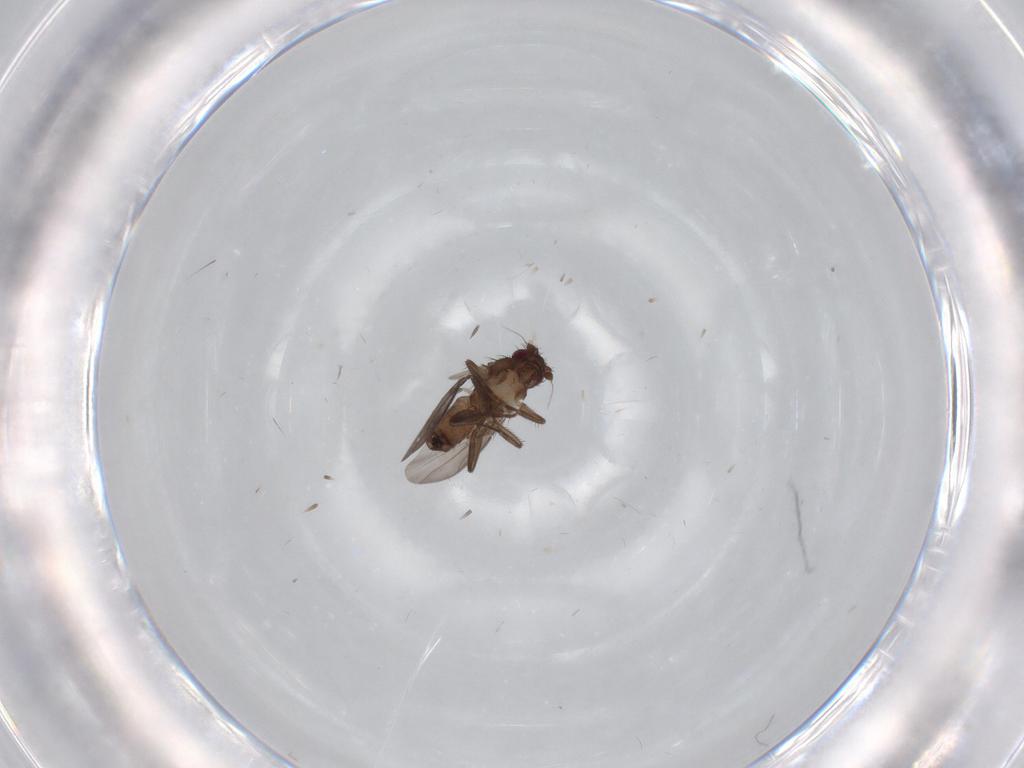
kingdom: Animalia
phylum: Arthropoda
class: Insecta
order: Diptera
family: Sphaeroceridae
